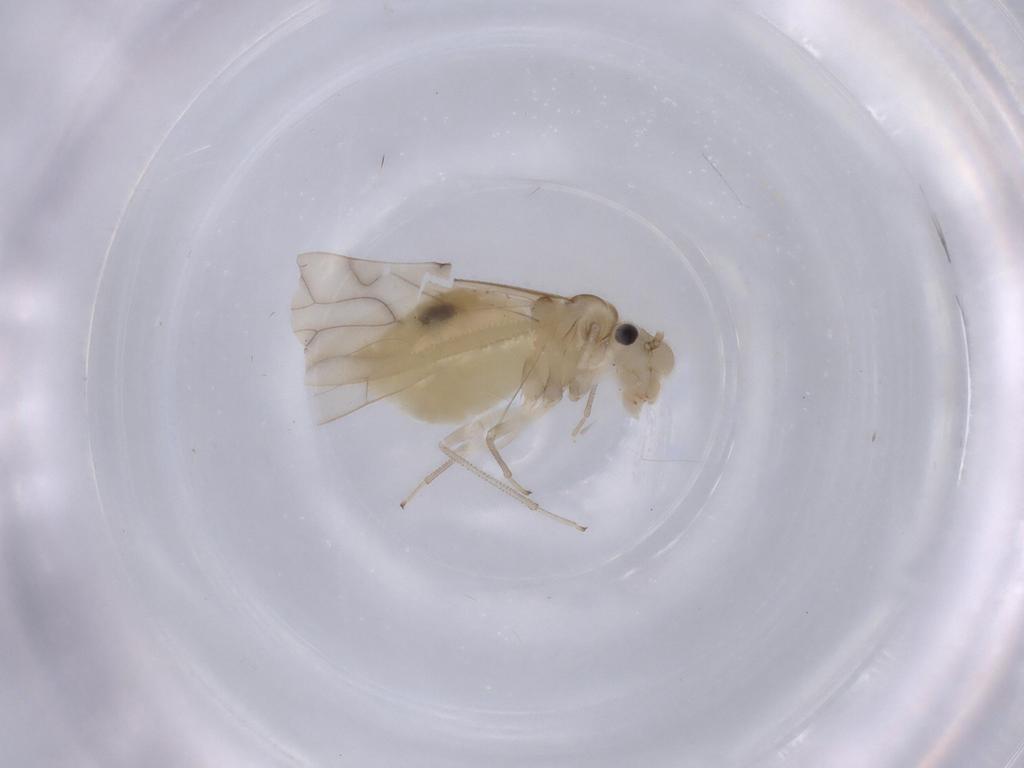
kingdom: Animalia
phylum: Arthropoda
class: Insecta
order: Psocodea
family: Caeciliusidae
